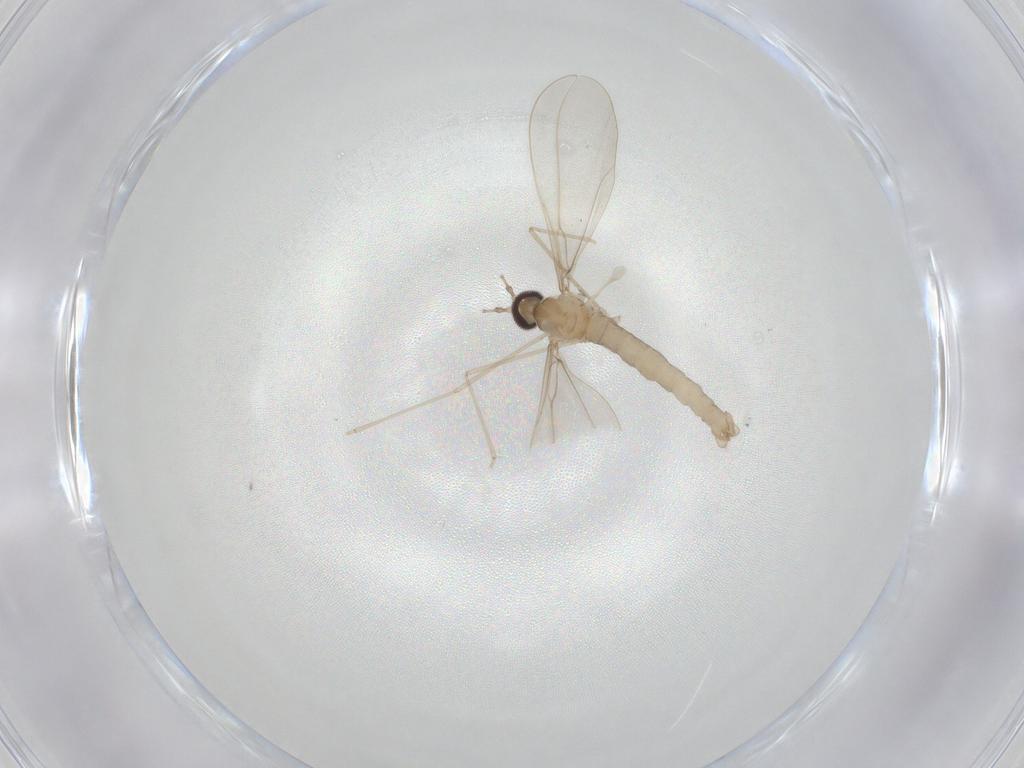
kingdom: Animalia
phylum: Arthropoda
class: Insecta
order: Diptera
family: Cecidomyiidae
